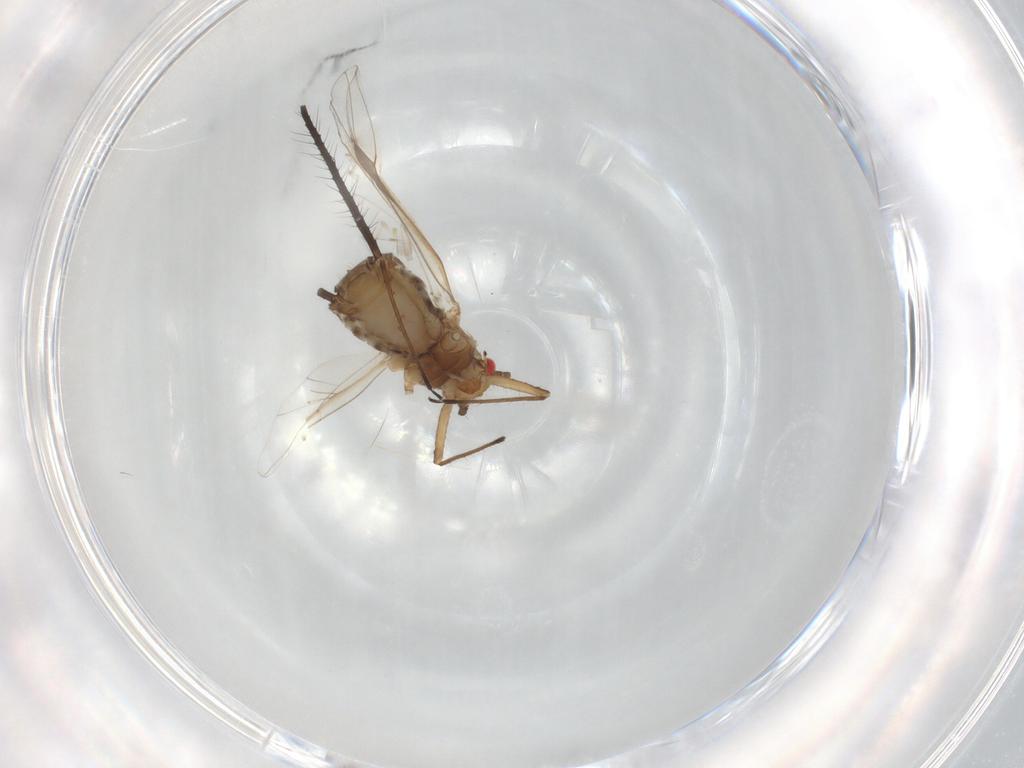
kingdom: Animalia
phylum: Arthropoda
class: Insecta
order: Hemiptera
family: Aphididae
